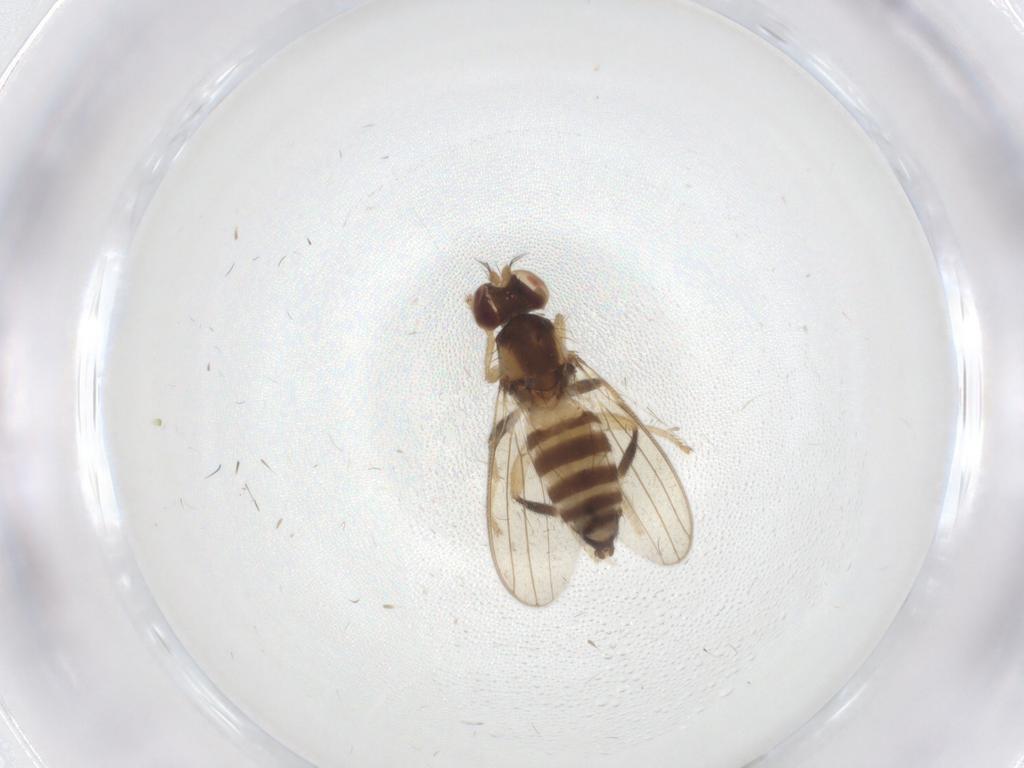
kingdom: Animalia
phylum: Arthropoda
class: Insecta
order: Diptera
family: Periscelididae
